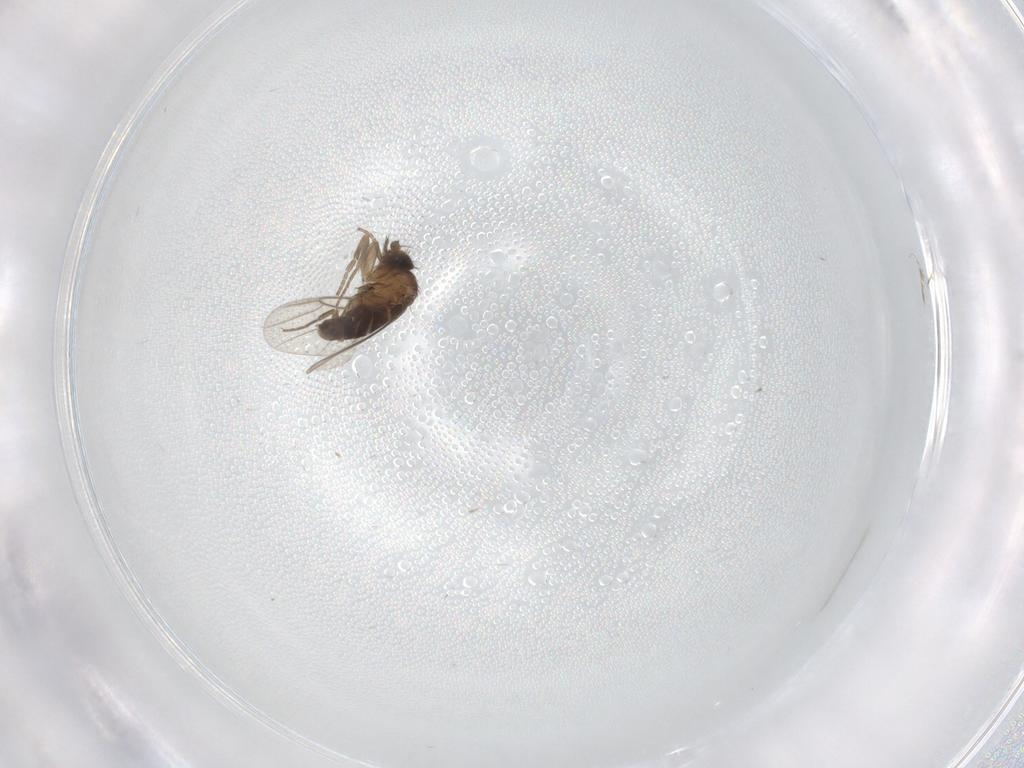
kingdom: Animalia
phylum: Arthropoda
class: Insecta
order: Diptera
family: Phoridae
